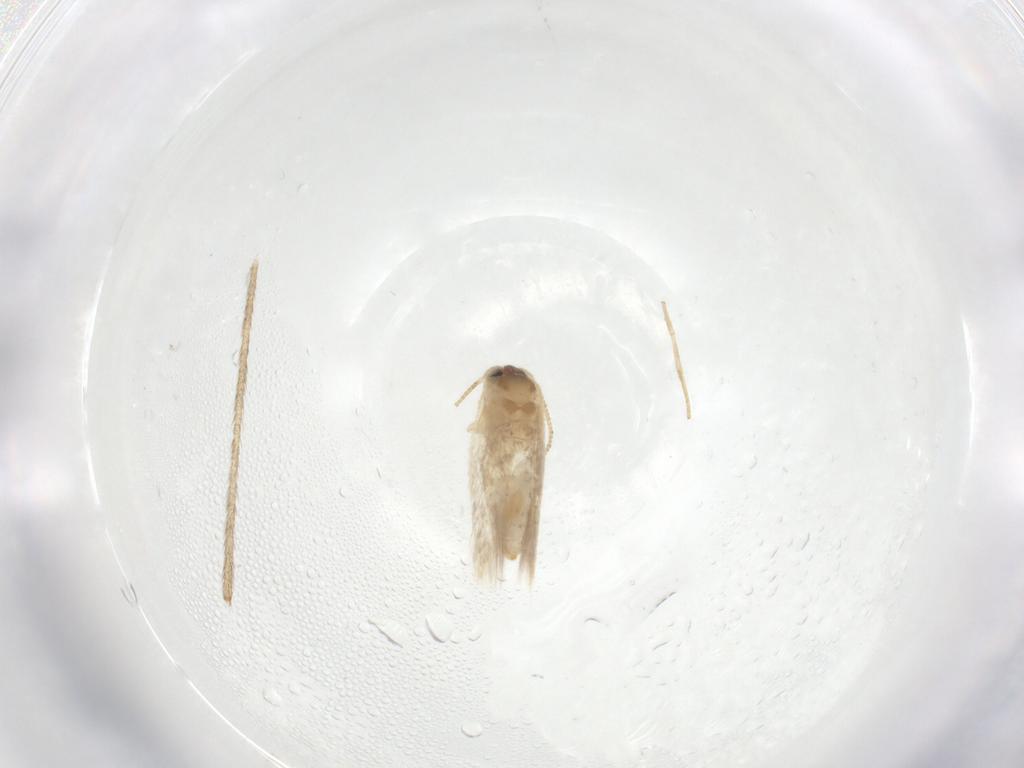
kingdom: Animalia
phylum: Arthropoda
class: Insecta
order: Diptera
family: Limoniidae
